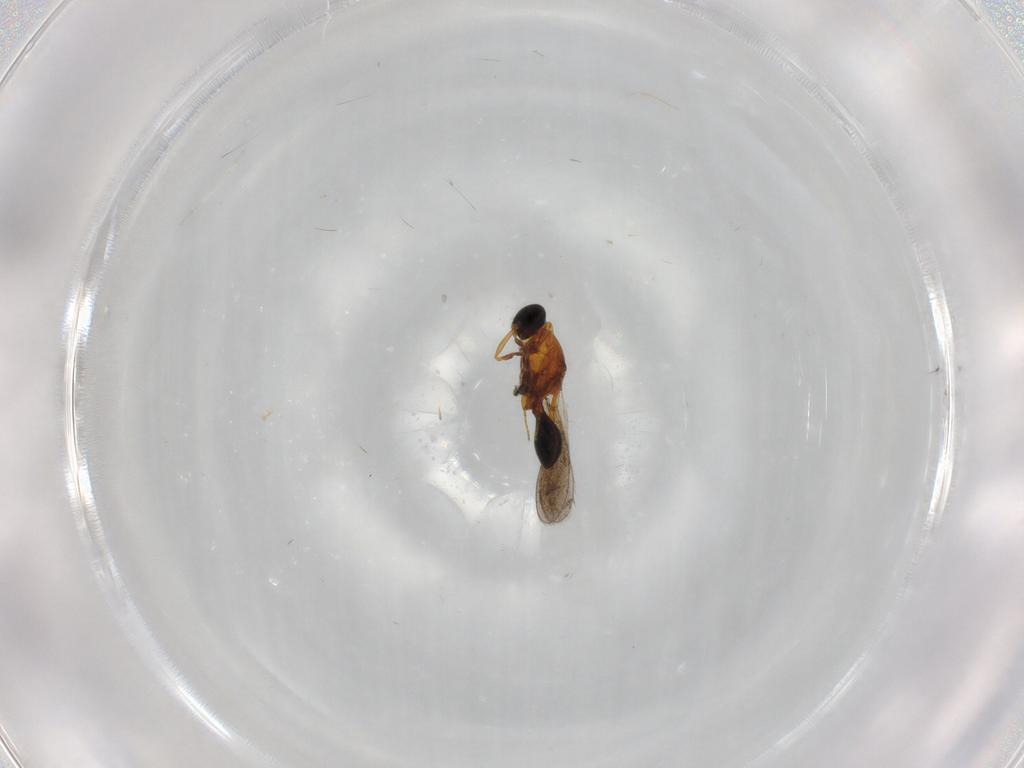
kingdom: Animalia
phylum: Arthropoda
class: Insecta
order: Hymenoptera
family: Platygastridae
